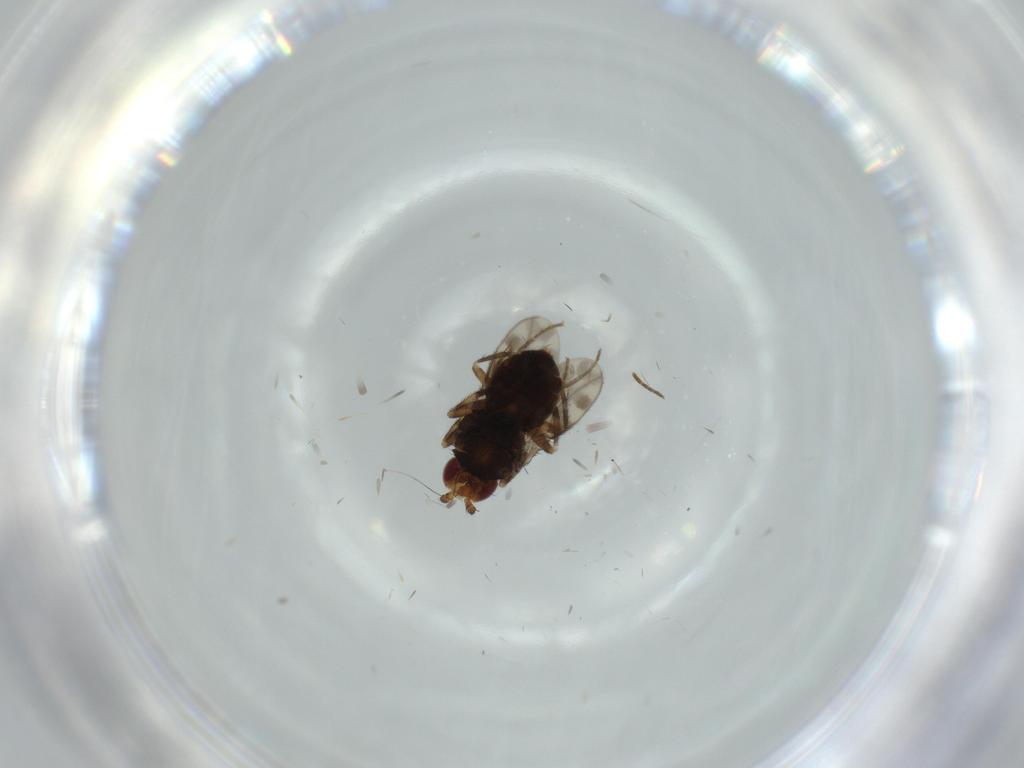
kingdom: Animalia
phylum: Arthropoda
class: Insecta
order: Diptera
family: Sphaeroceridae
